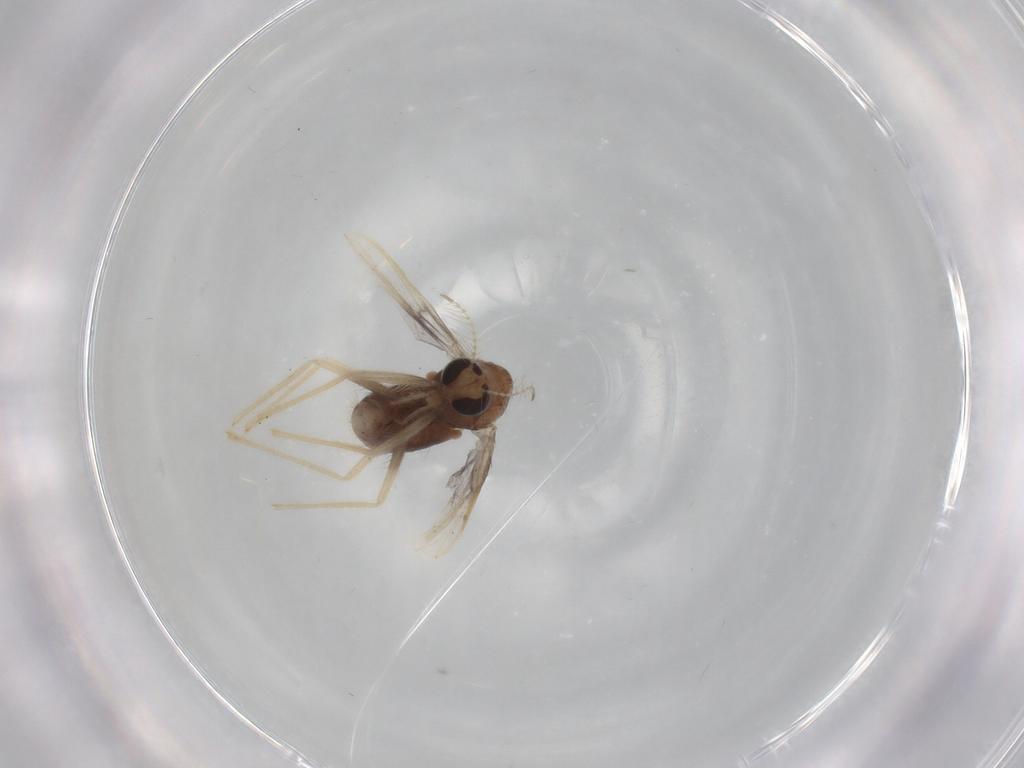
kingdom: Animalia
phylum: Arthropoda
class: Insecta
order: Diptera
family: Chironomidae
